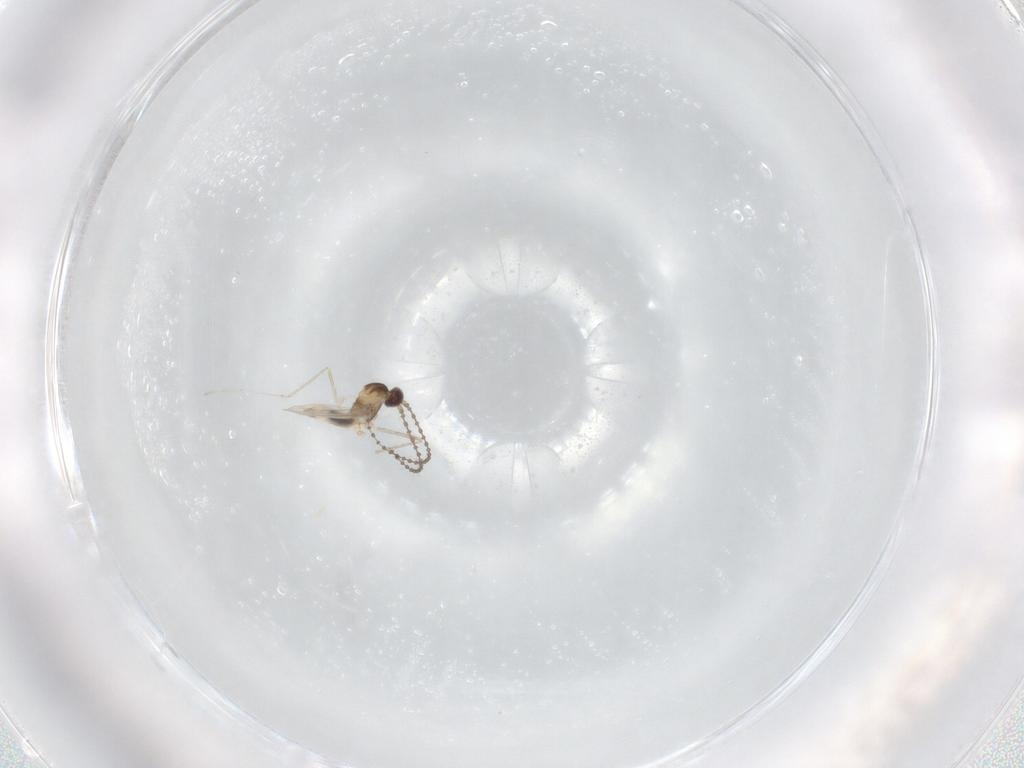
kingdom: Animalia
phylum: Arthropoda
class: Insecta
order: Diptera
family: Cecidomyiidae
